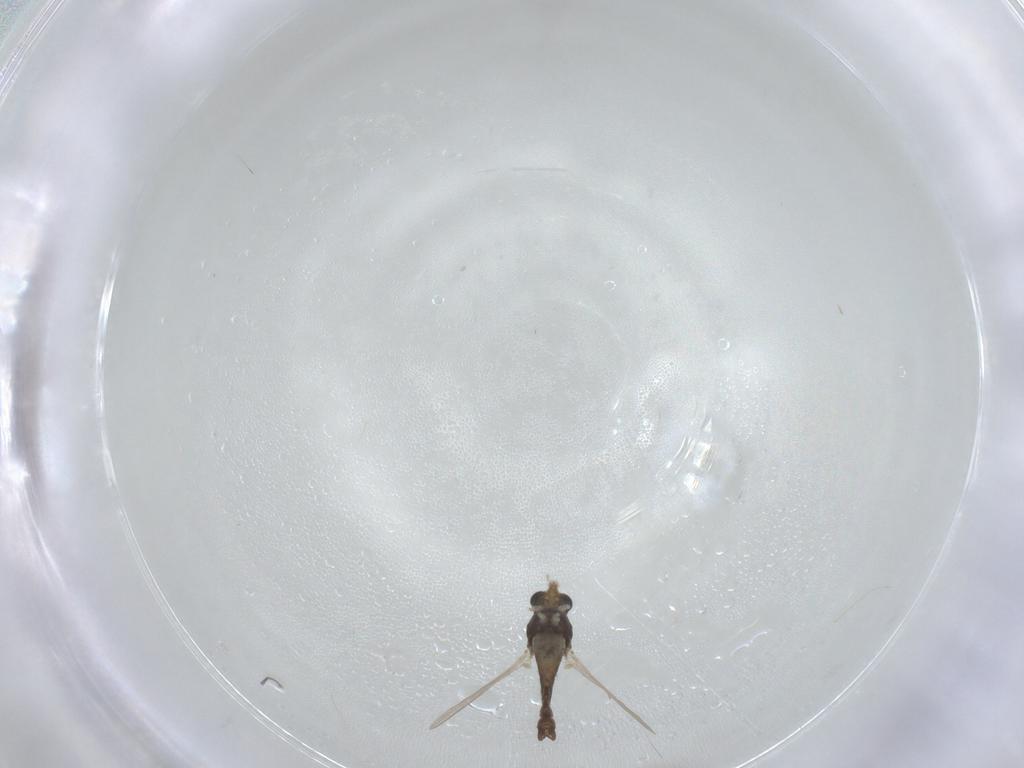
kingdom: Animalia
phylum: Arthropoda
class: Insecta
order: Diptera
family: Chironomidae
